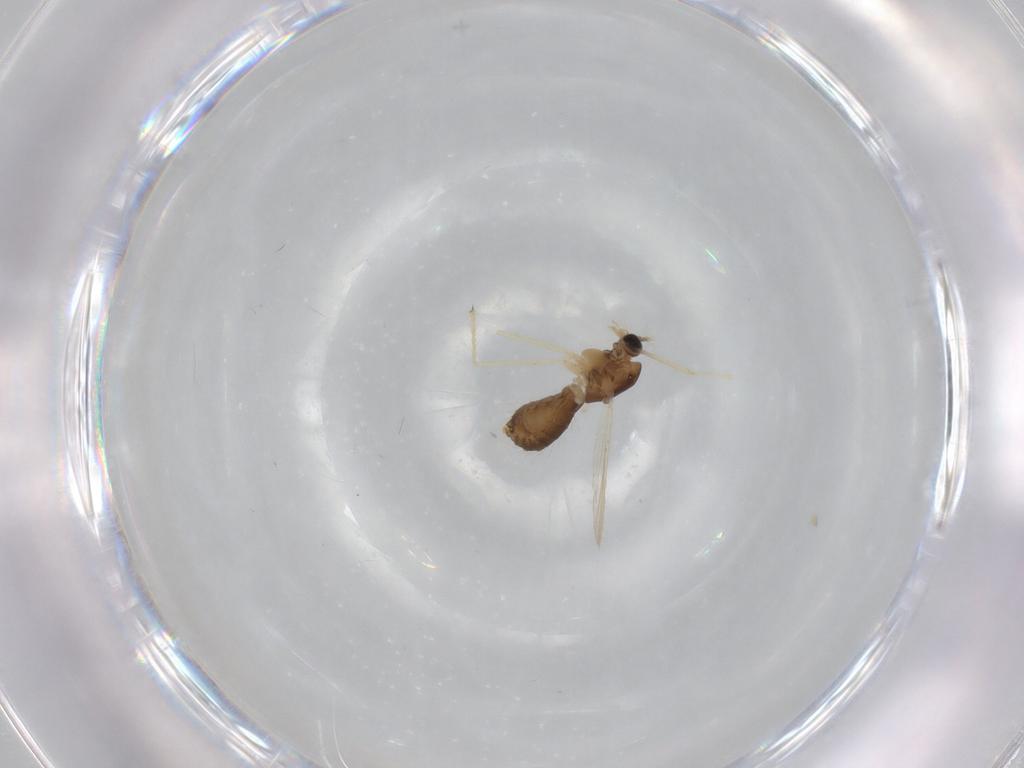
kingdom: Animalia
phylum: Arthropoda
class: Insecta
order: Diptera
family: Chironomidae
